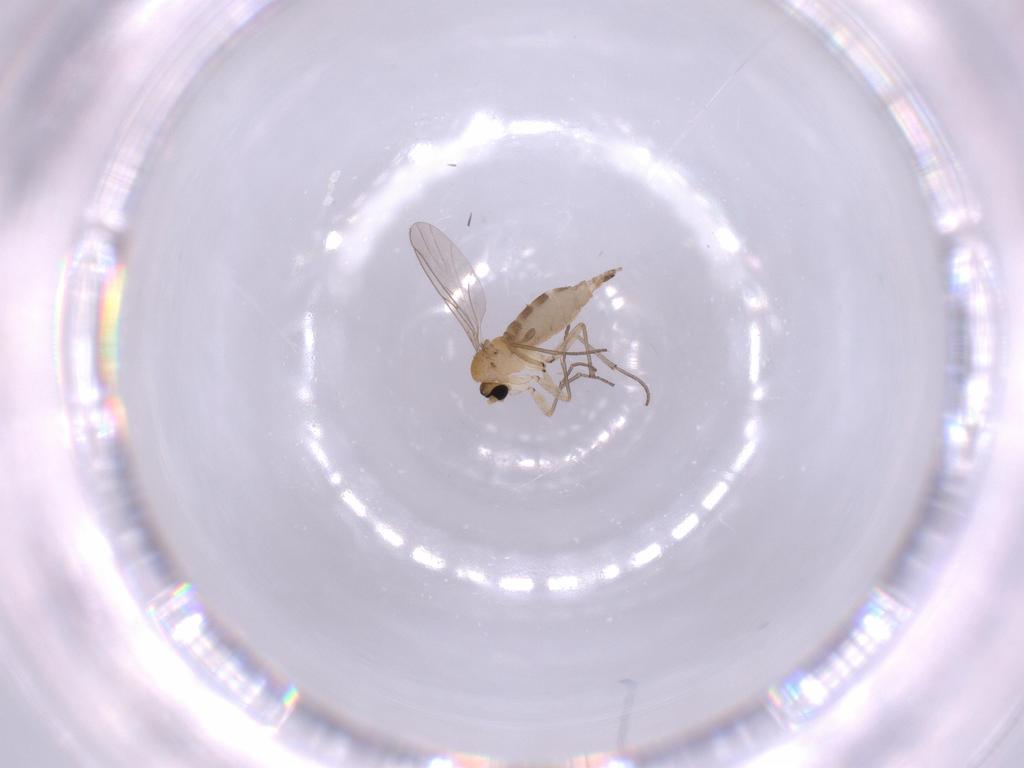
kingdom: Animalia
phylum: Arthropoda
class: Insecta
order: Diptera
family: Sciaridae
